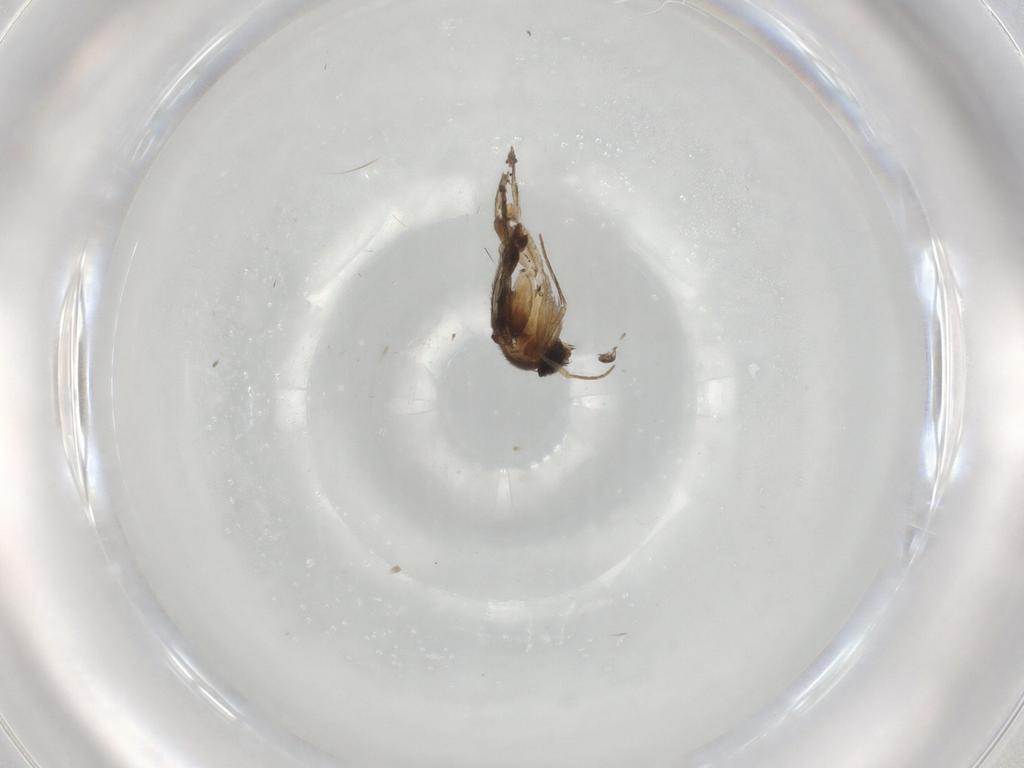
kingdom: Animalia
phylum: Arthropoda
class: Insecta
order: Diptera
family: Phoridae
